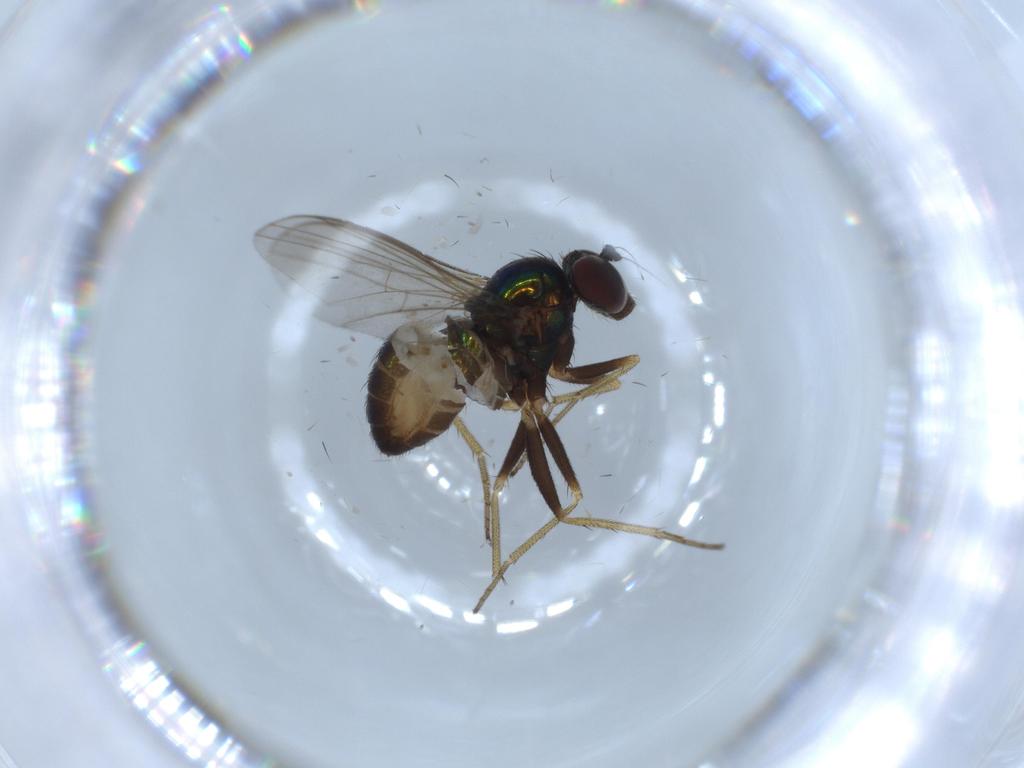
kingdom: Animalia
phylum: Arthropoda
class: Insecta
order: Diptera
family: Dolichopodidae
